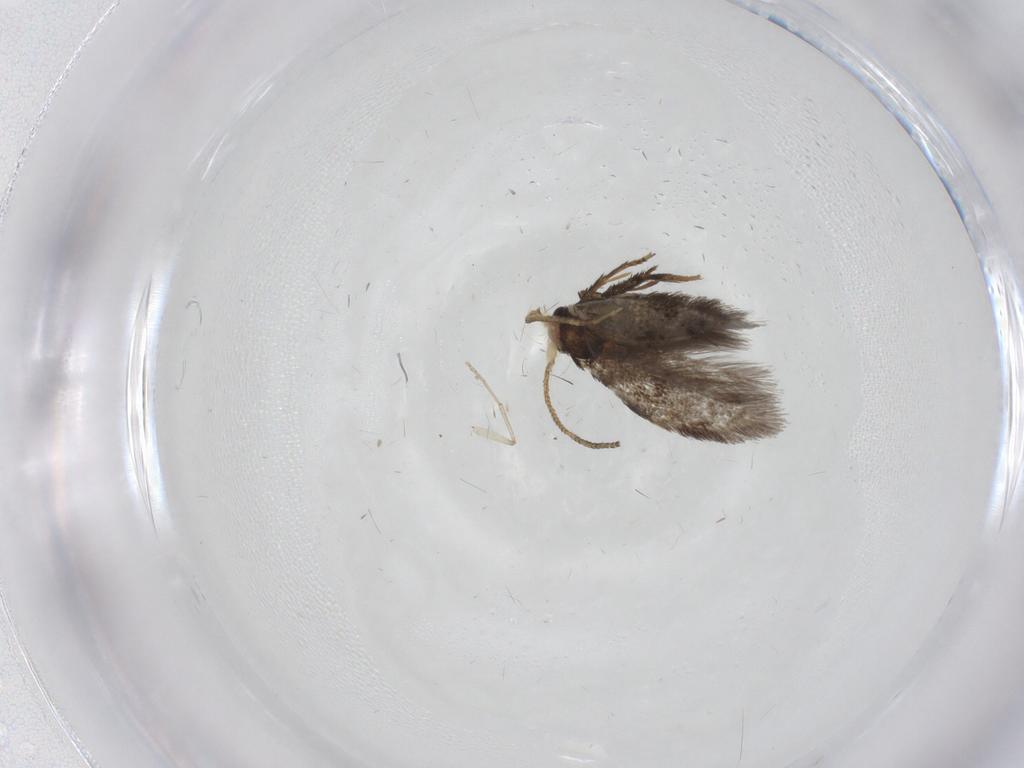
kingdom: Animalia
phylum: Arthropoda
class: Insecta
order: Lepidoptera
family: Nepticulidae
